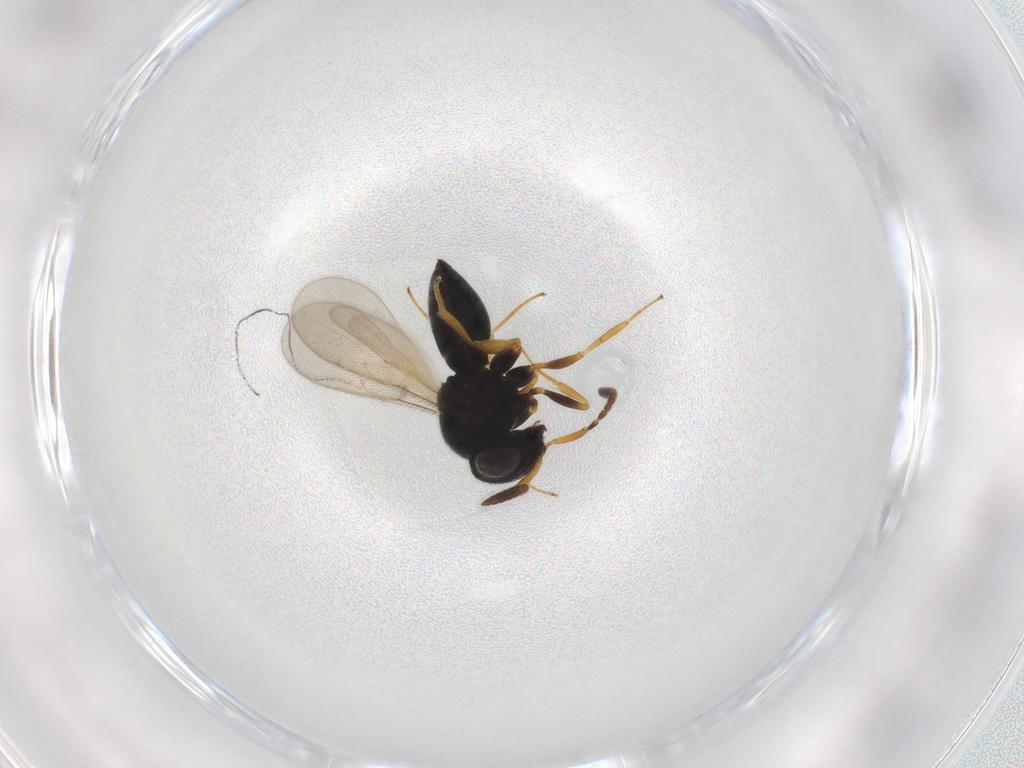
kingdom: Animalia
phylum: Arthropoda
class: Insecta
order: Hymenoptera
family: Scelionidae
